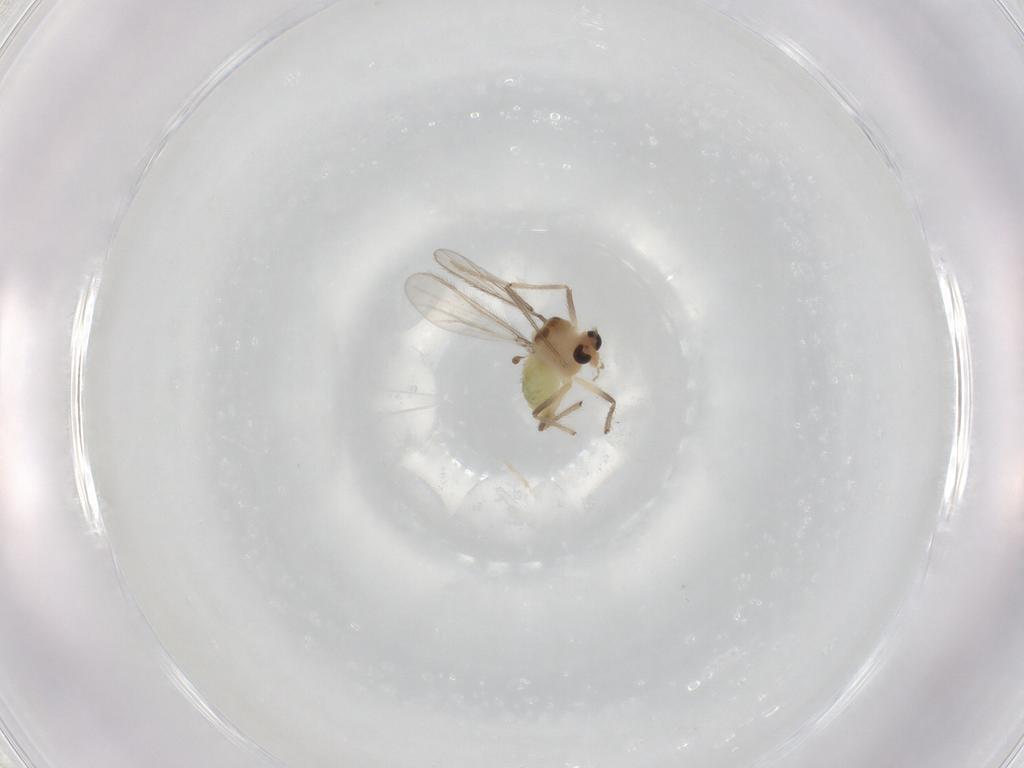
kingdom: Animalia
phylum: Arthropoda
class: Insecta
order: Diptera
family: Chironomidae
